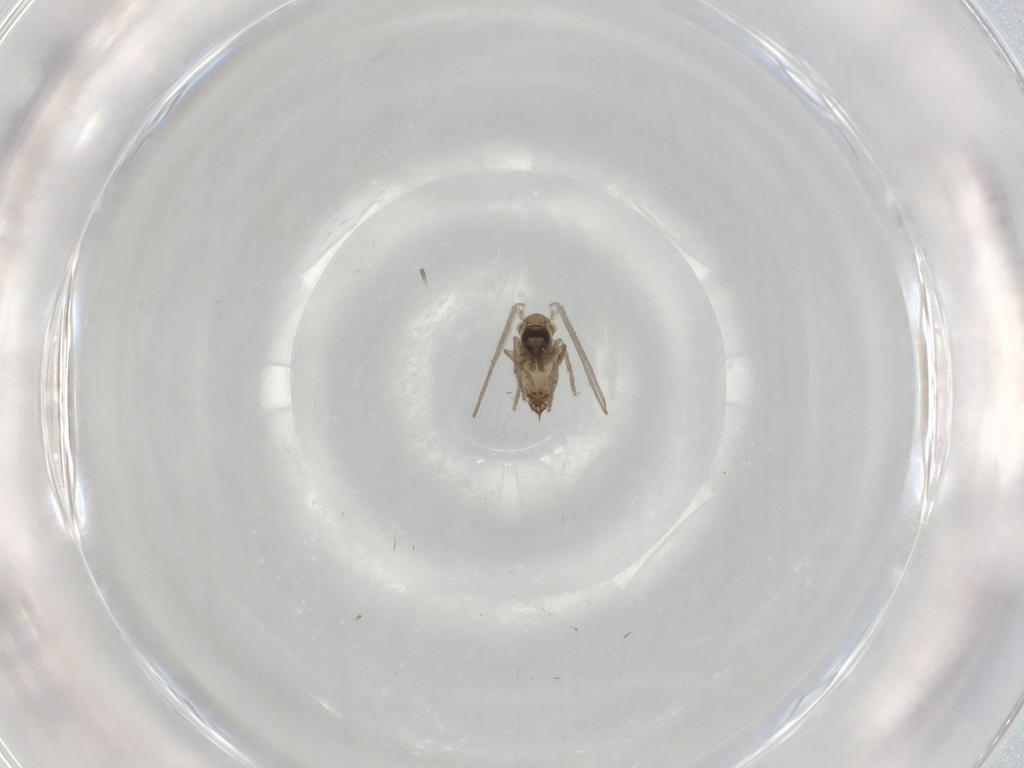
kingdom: Animalia
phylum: Arthropoda
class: Insecta
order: Diptera
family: Cecidomyiidae
